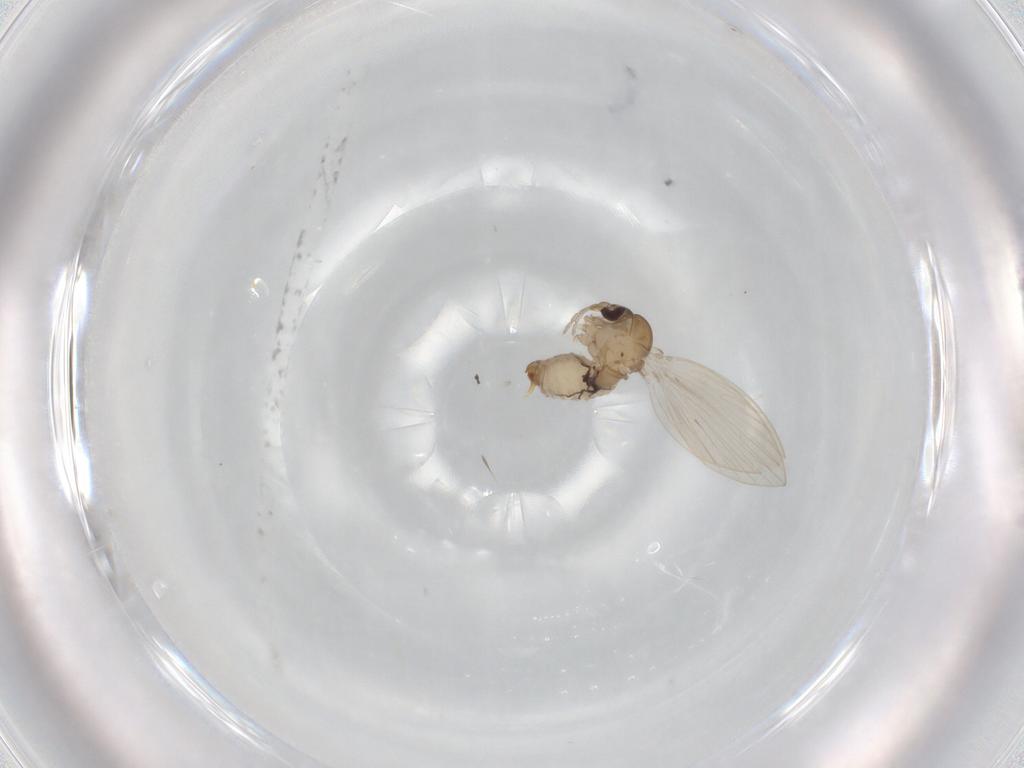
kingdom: Animalia
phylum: Arthropoda
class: Insecta
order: Diptera
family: Psychodidae
